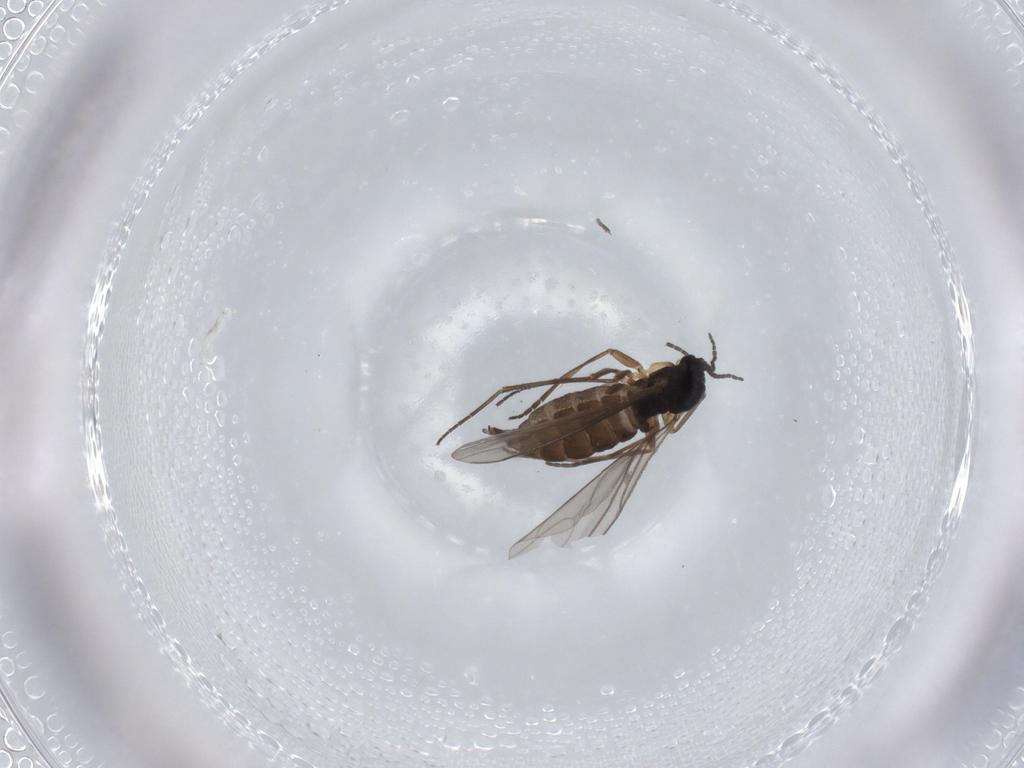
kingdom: Animalia
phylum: Arthropoda
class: Insecta
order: Diptera
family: Sciaridae
